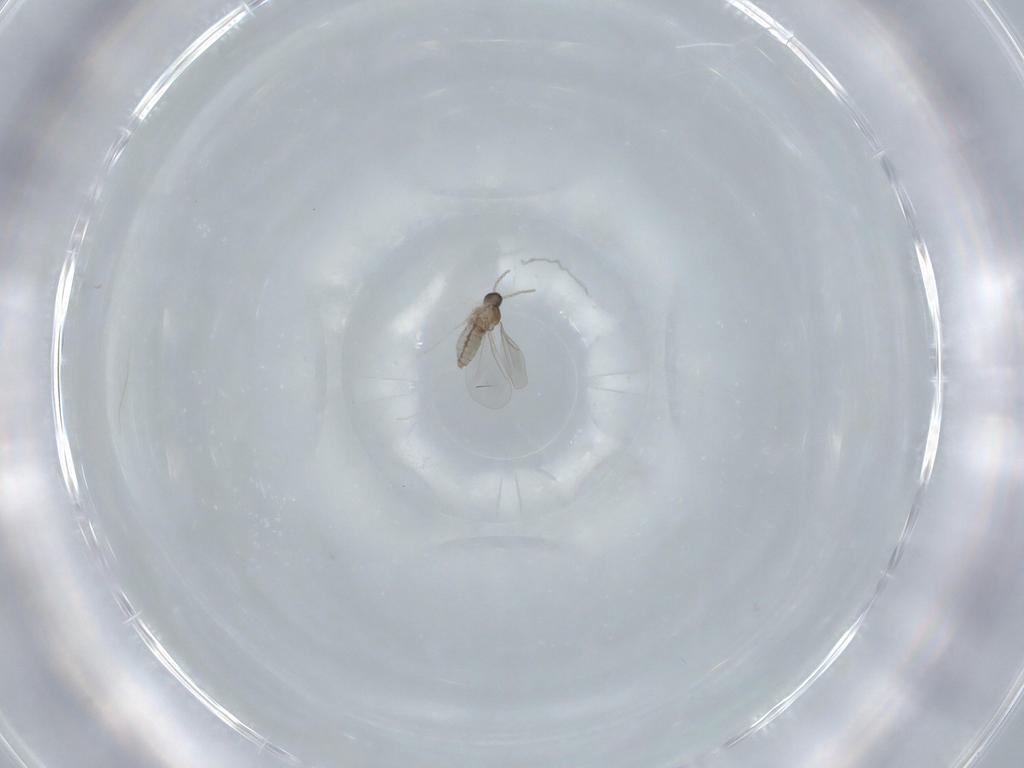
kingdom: Animalia
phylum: Arthropoda
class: Insecta
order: Diptera
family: Cecidomyiidae
